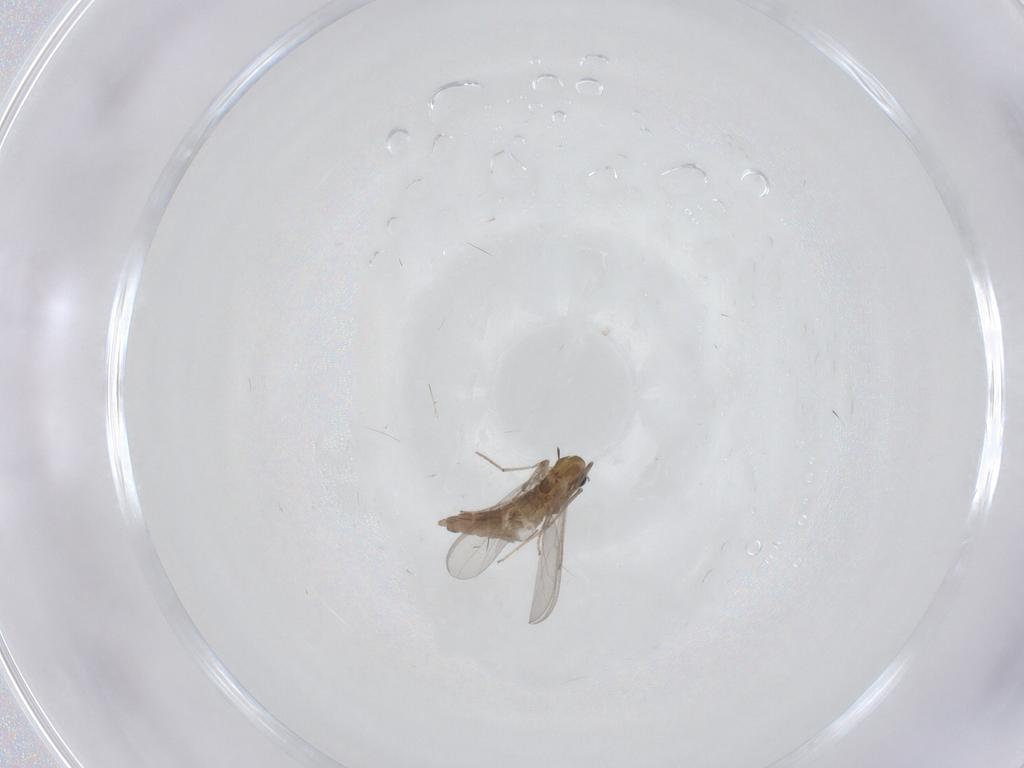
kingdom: Animalia
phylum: Arthropoda
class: Insecta
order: Diptera
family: Chironomidae
